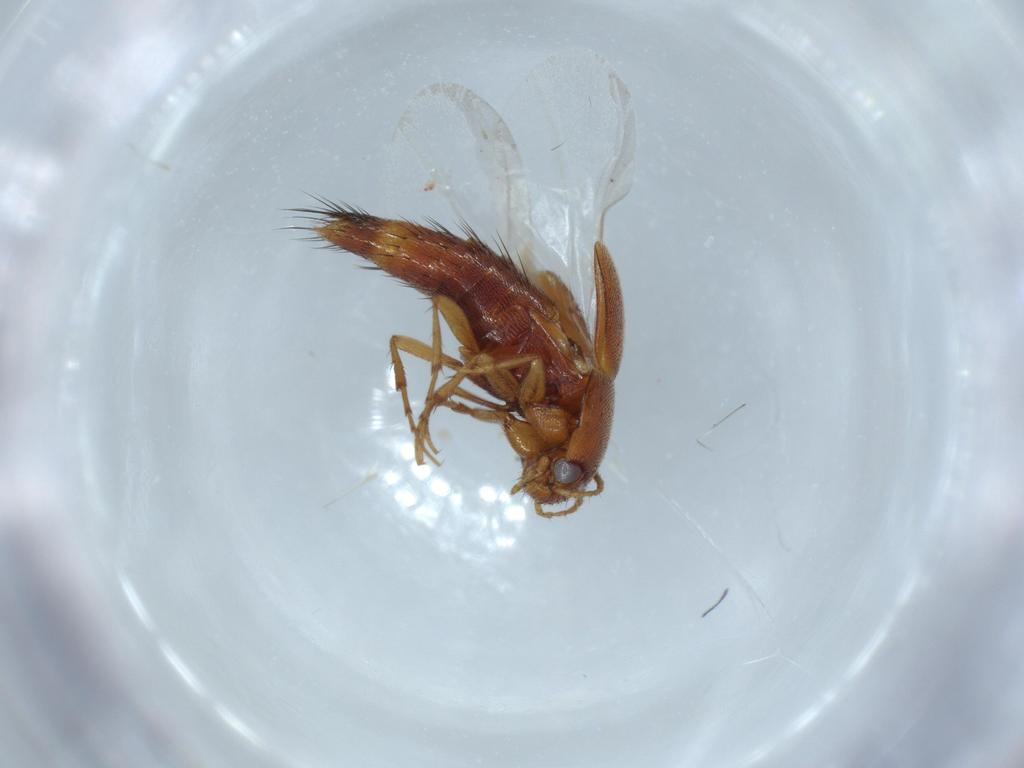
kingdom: Animalia
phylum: Arthropoda
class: Insecta
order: Coleoptera
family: Staphylinidae
